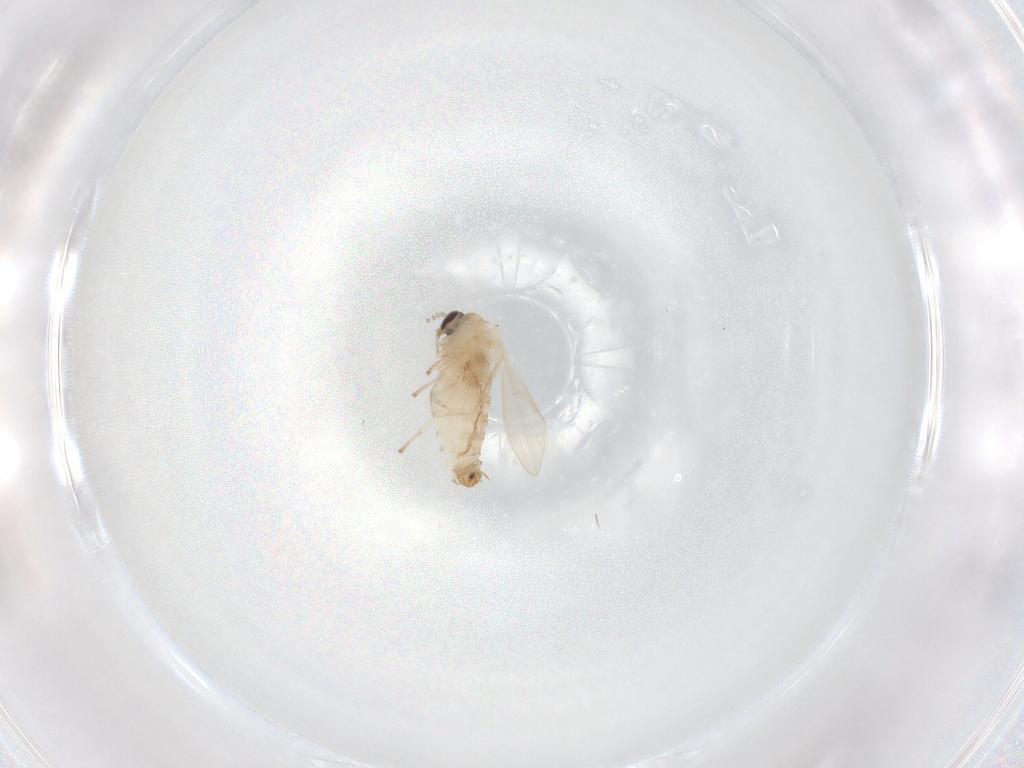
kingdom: Animalia
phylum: Arthropoda
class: Insecta
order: Diptera
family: Psychodidae
